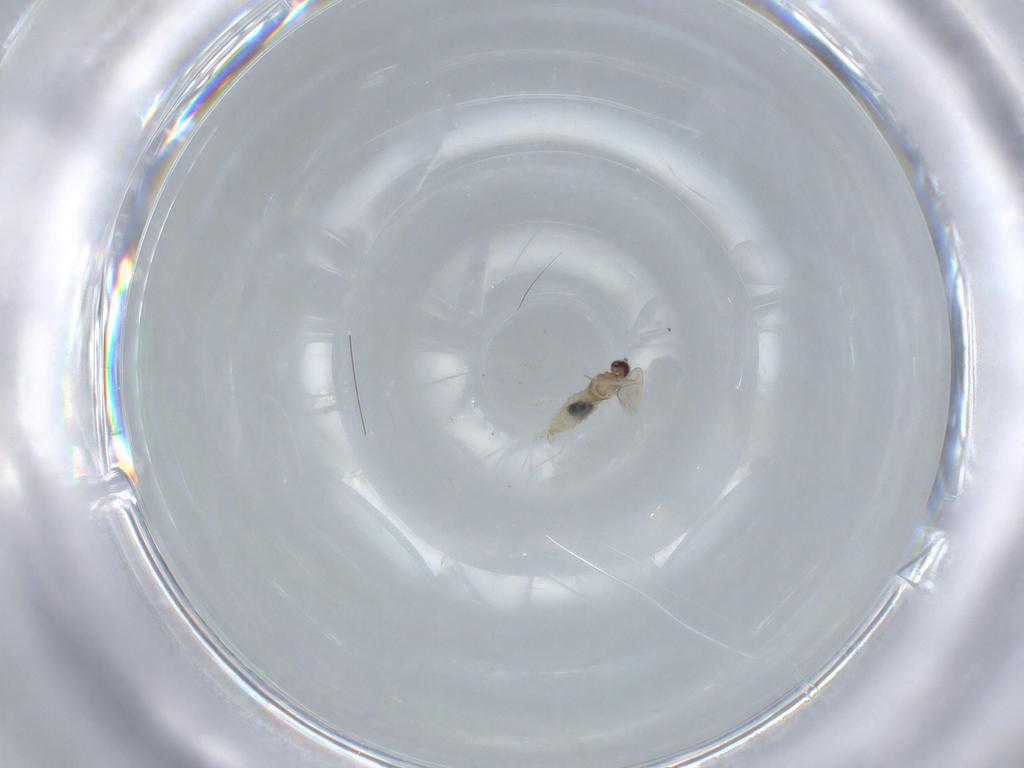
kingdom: Animalia
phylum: Arthropoda
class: Insecta
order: Diptera
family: Cecidomyiidae
